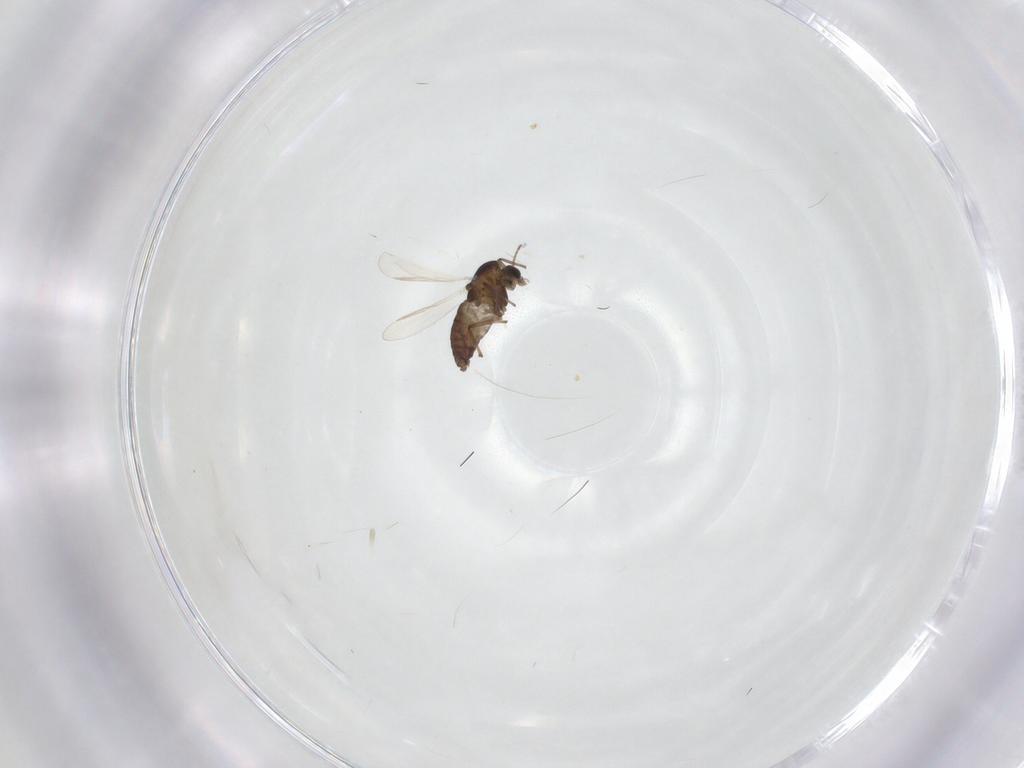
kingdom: Animalia
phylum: Arthropoda
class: Insecta
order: Diptera
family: Chironomidae
